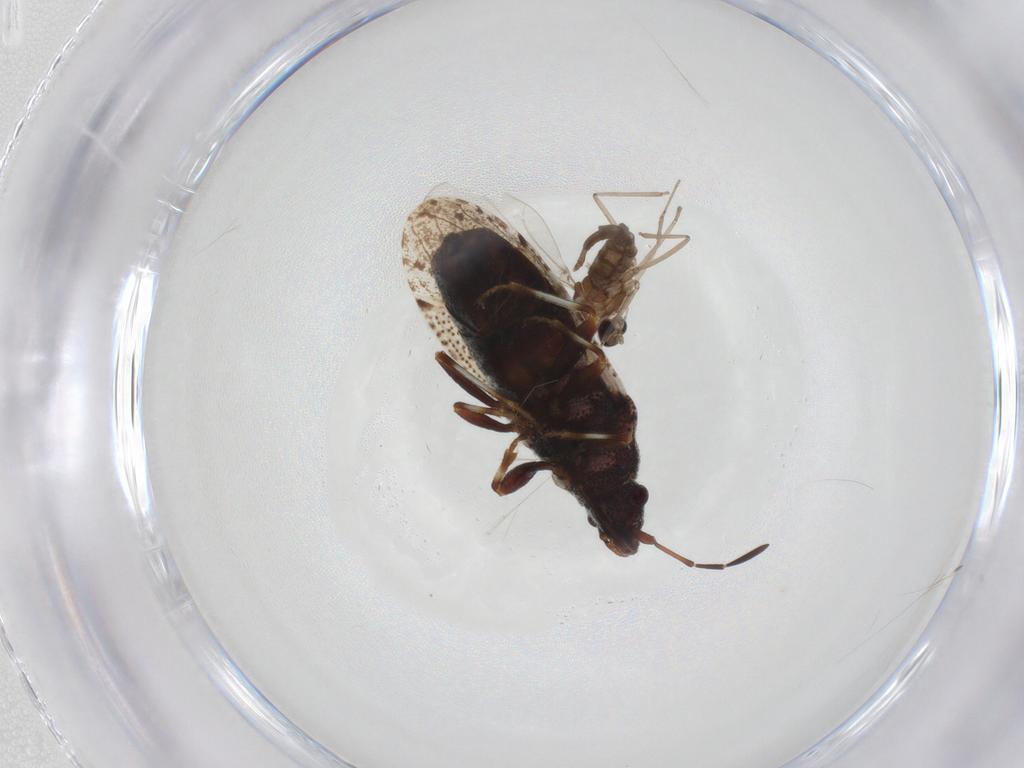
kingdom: Animalia
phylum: Arthropoda
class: Insecta
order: Hemiptera
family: Oxycarenidae
